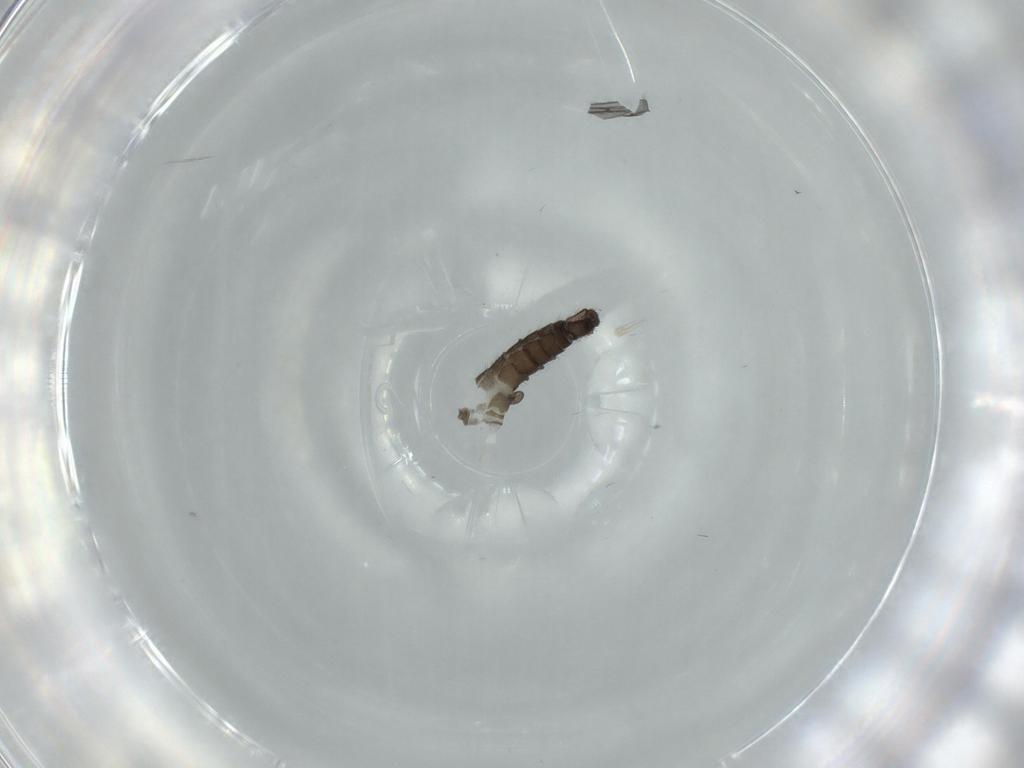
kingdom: Animalia
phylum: Arthropoda
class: Insecta
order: Diptera
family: Sciaridae
